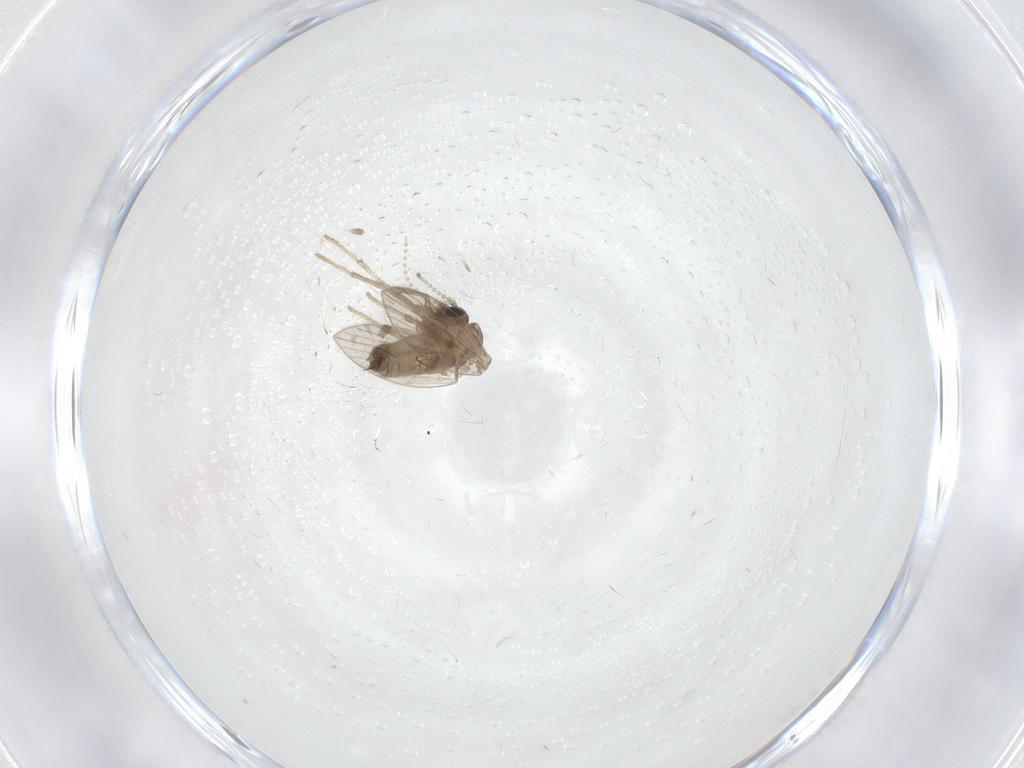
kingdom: Animalia
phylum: Arthropoda
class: Insecta
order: Diptera
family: Psychodidae
